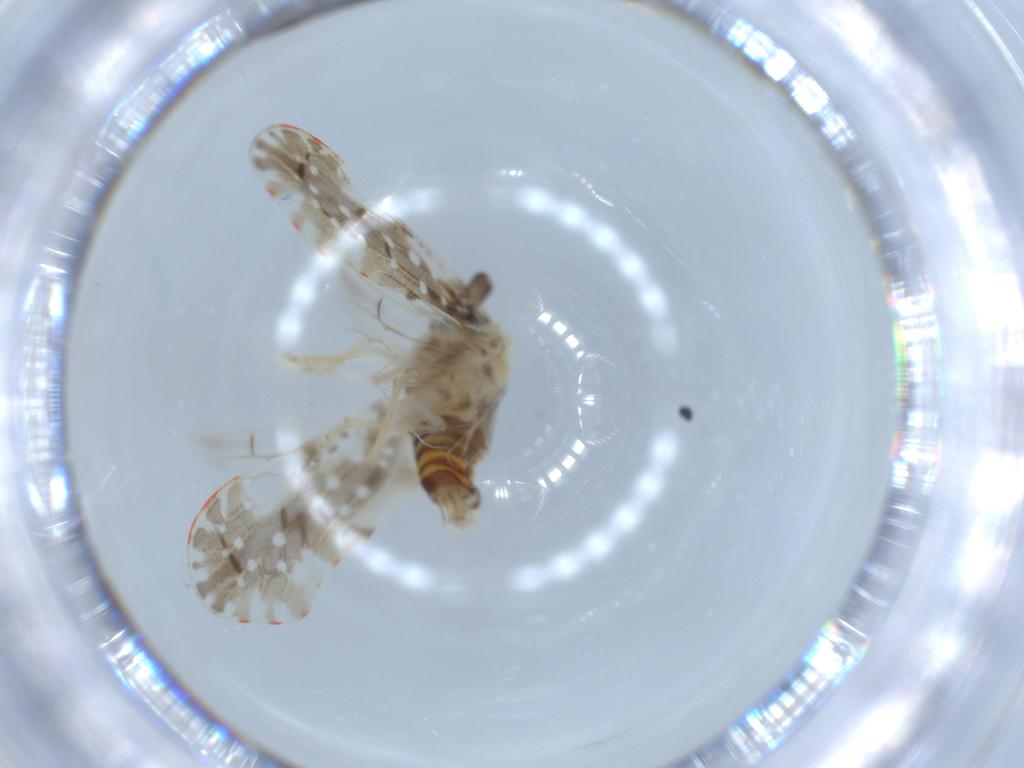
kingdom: Animalia
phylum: Arthropoda
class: Insecta
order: Hemiptera
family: Derbidae
